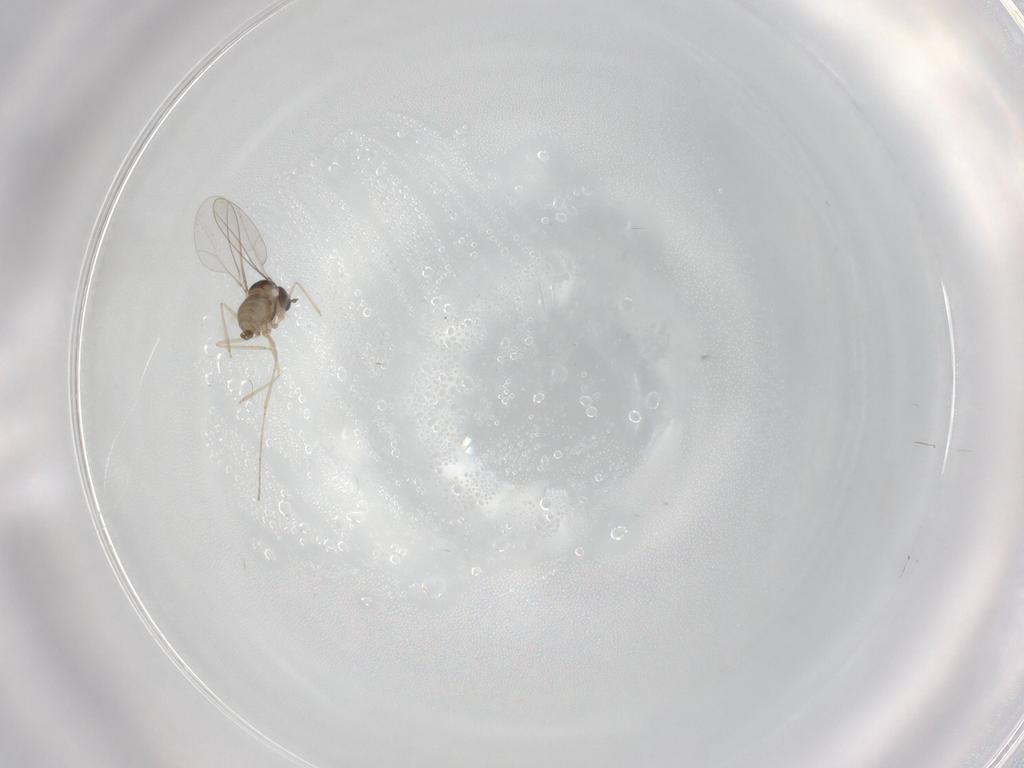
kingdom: Animalia
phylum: Arthropoda
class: Insecta
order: Diptera
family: Cecidomyiidae
